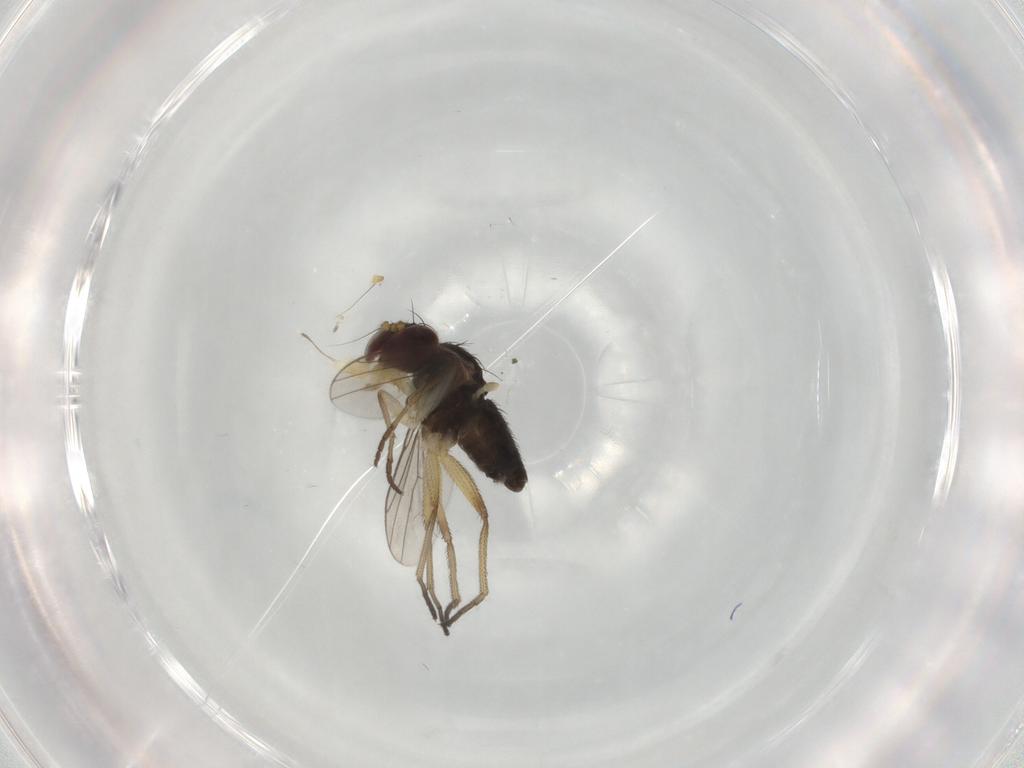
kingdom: Animalia
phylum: Arthropoda
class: Insecta
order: Diptera
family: Dolichopodidae
